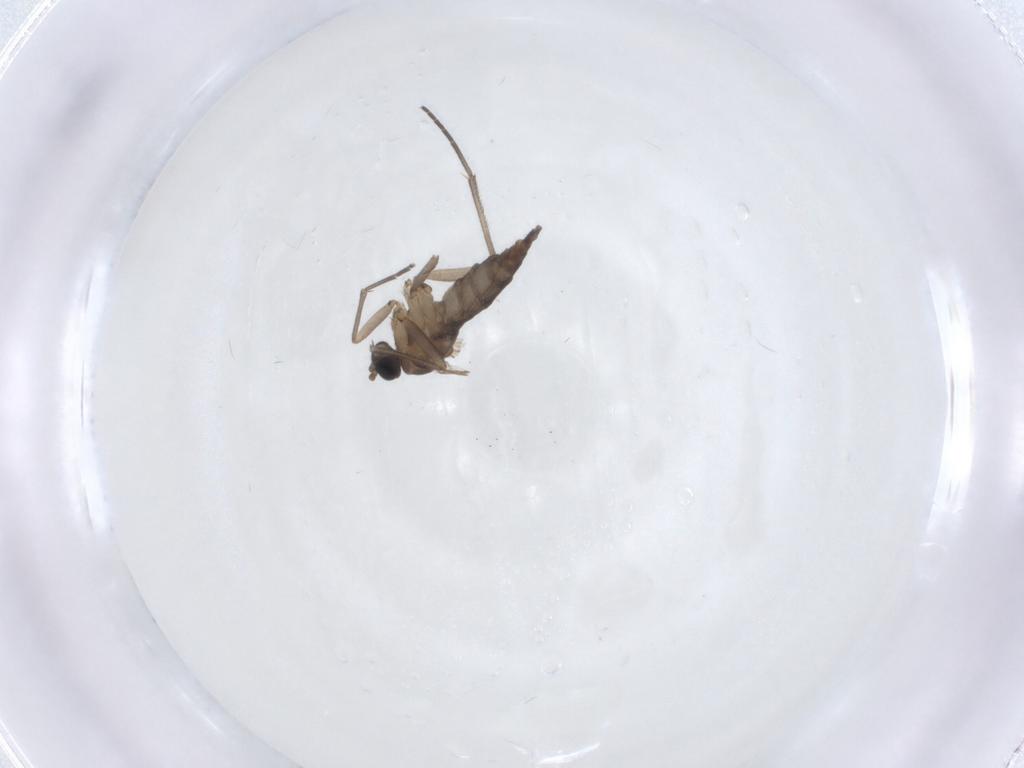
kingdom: Animalia
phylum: Arthropoda
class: Insecta
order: Diptera
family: Sciaridae
